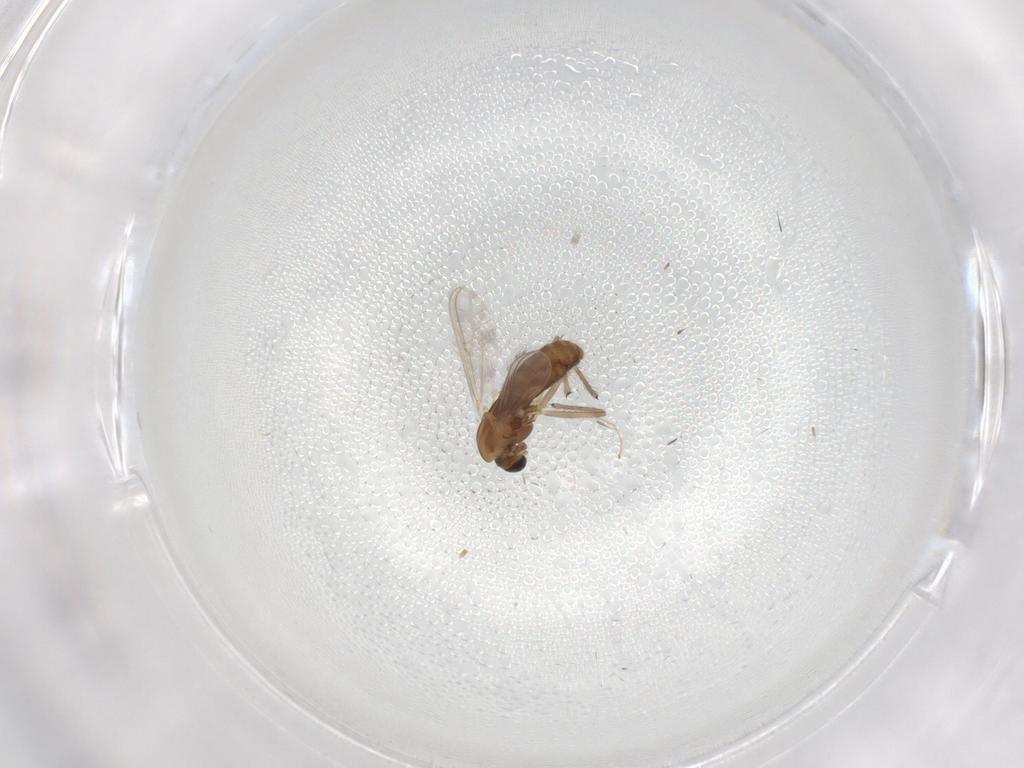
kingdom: Animalia
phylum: Arthropoda
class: Insecta
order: Diptera
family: Chironomidae
